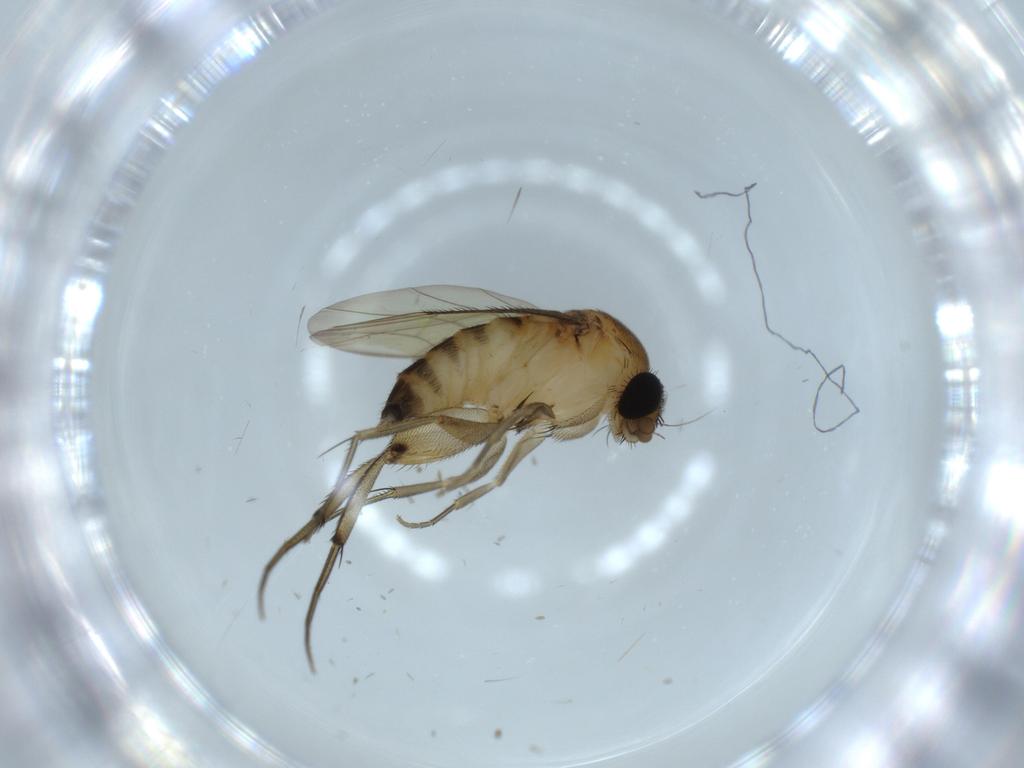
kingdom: Animalia
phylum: Arthropoda
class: Insecta
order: Diptera
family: Phoridae
